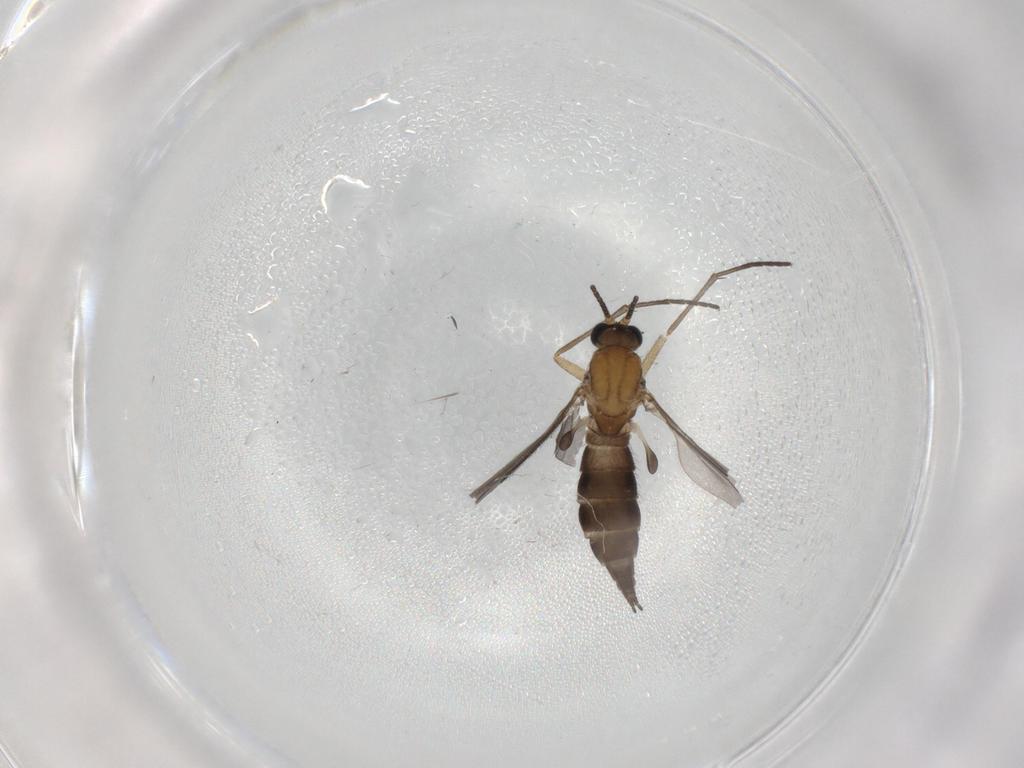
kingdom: Animalia
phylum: Arthropoda
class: Insecta
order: Diptera
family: Sciaridae
